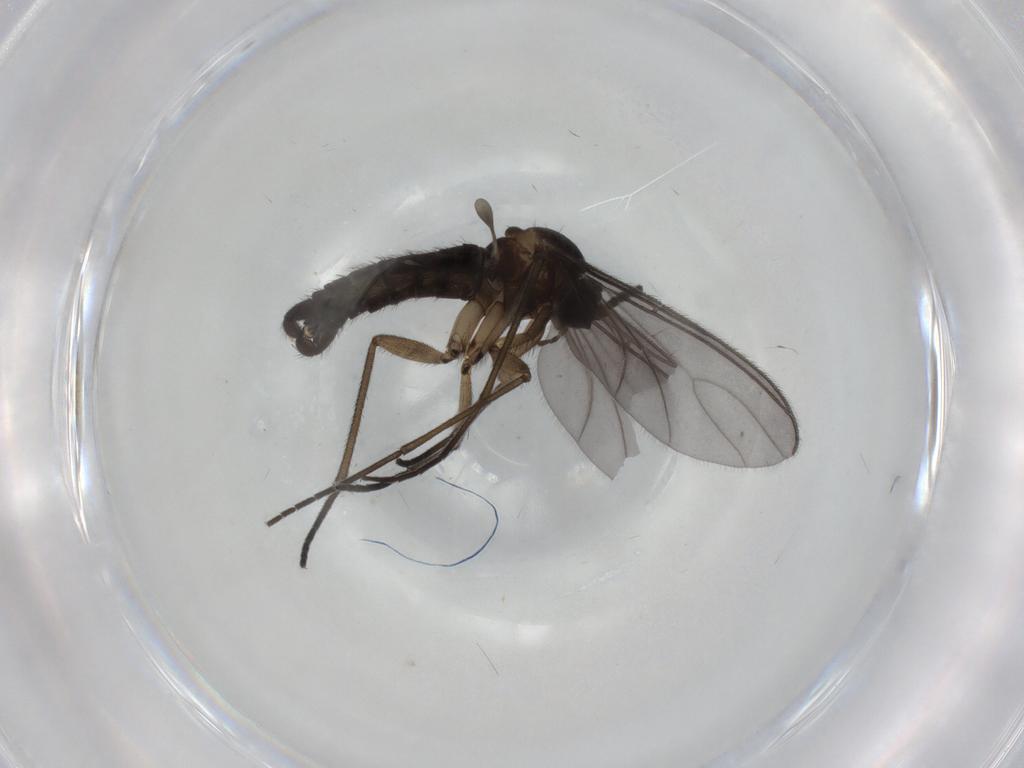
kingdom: Animalia
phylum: Arthropoda
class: Insecta
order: Diptera
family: Sciaridae
